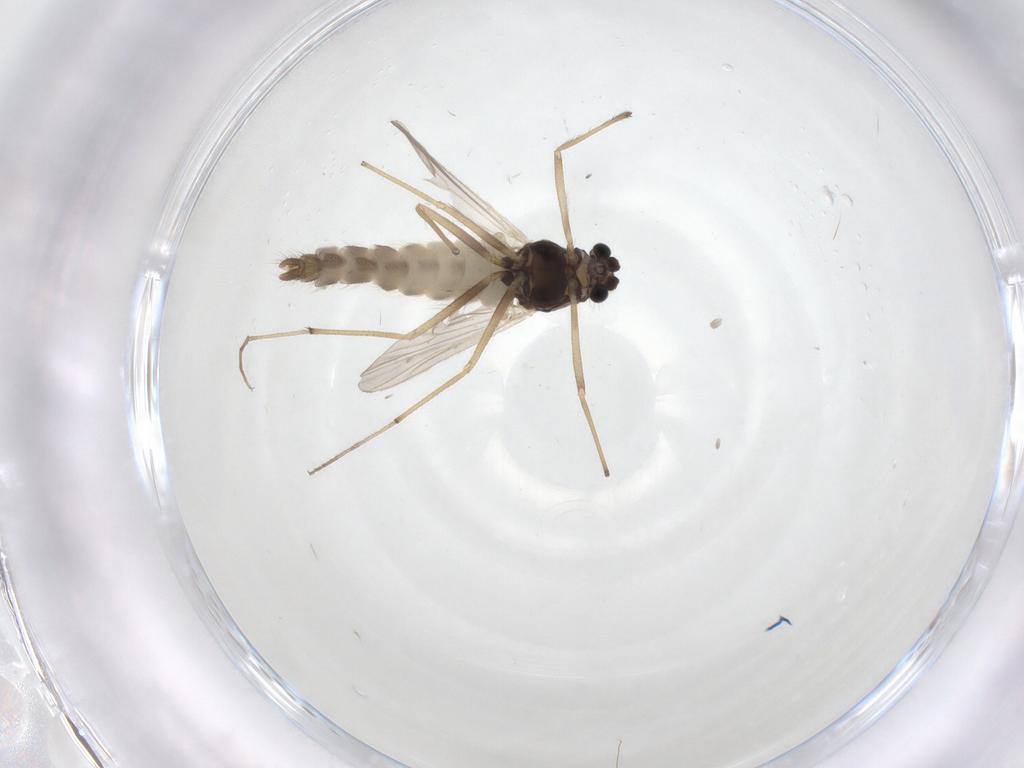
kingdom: Animalia
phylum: Arthropoda
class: Insecta
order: Diptera
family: Chironomidae
